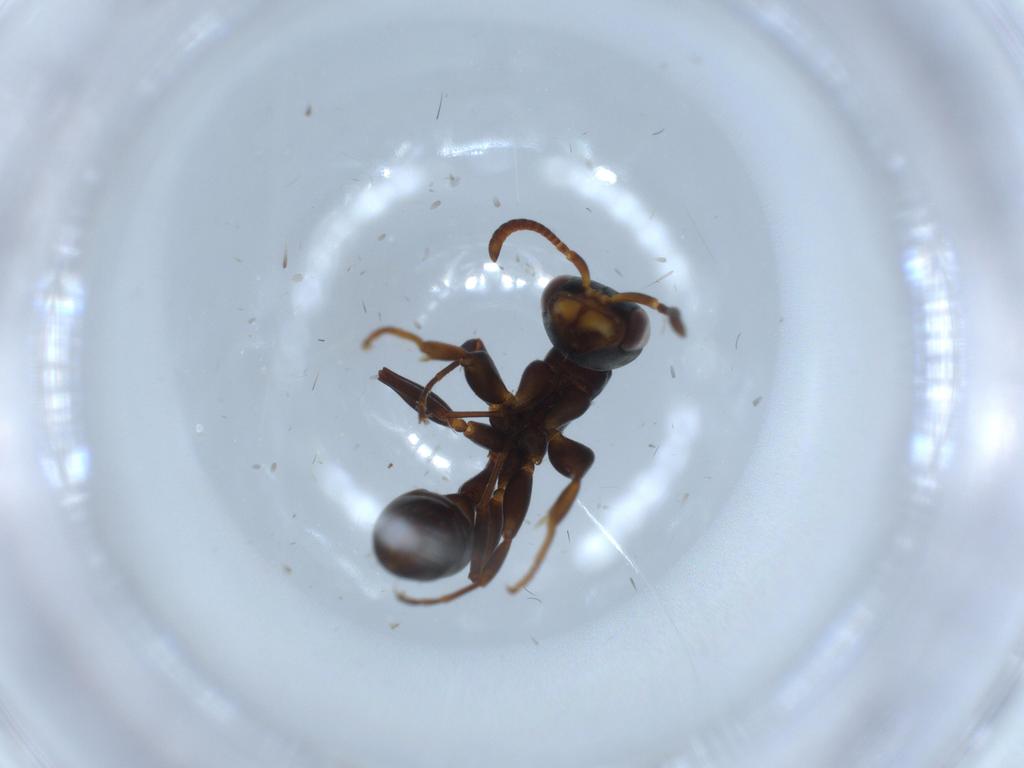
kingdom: Animalia
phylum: Arthropoda
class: Insecta
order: Hymenoptera
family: Formicidae
